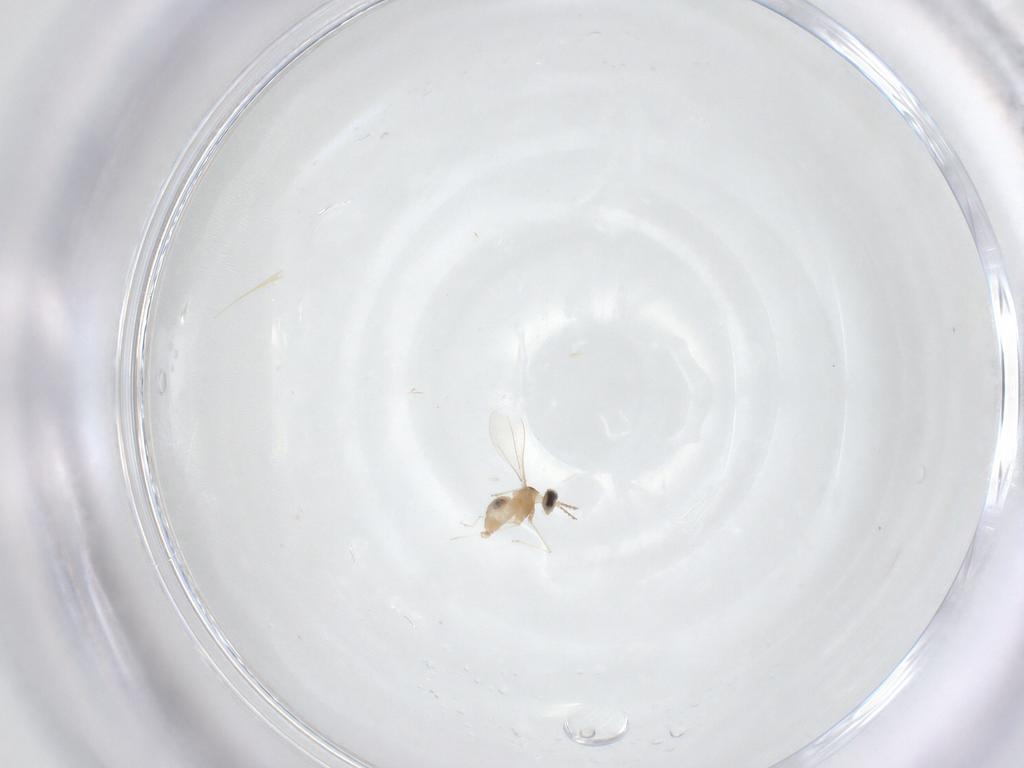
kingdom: Animalia
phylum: Arthropoda
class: Insecta
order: Diptera
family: Cecidomyiidae
